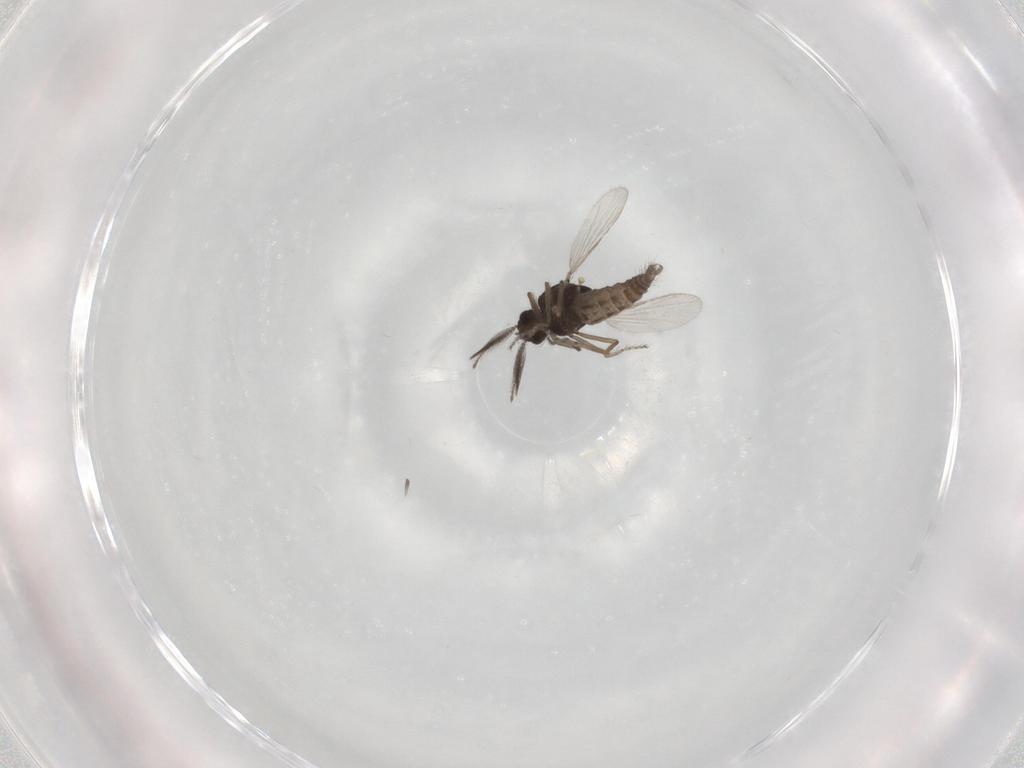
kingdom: Animalia
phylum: Arthropoda
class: Insecta
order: Diptera
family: Ceratopogonidae
